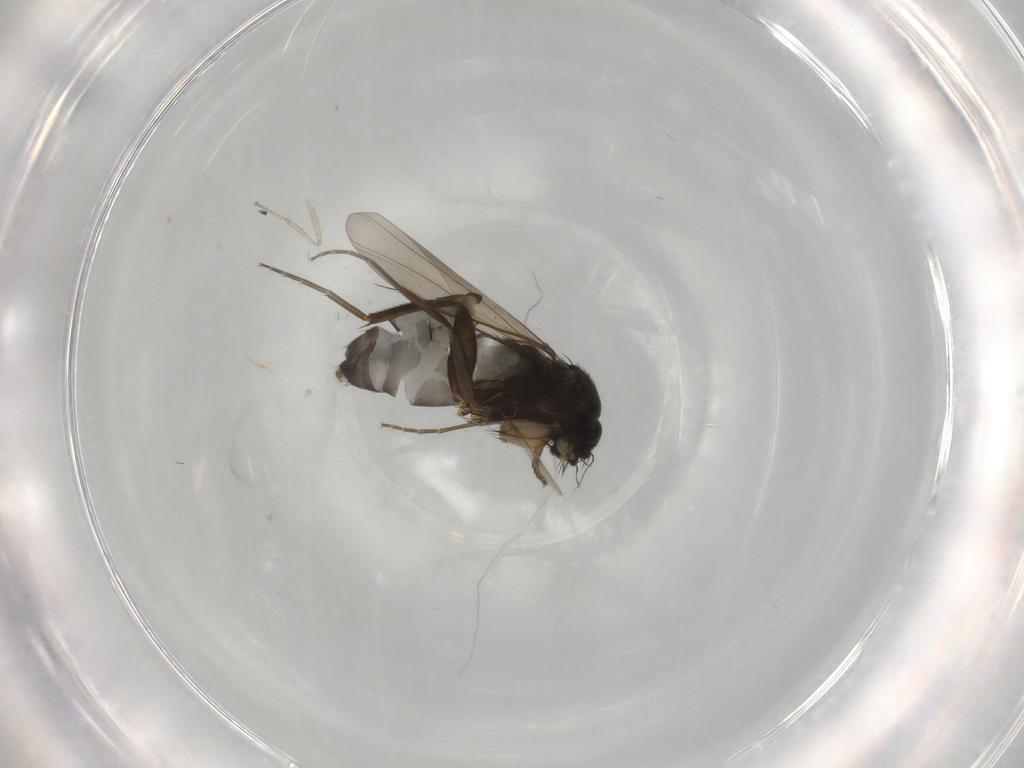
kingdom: Animalia
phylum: Arthropoda
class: Insecta
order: Diptera
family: Phoridae
